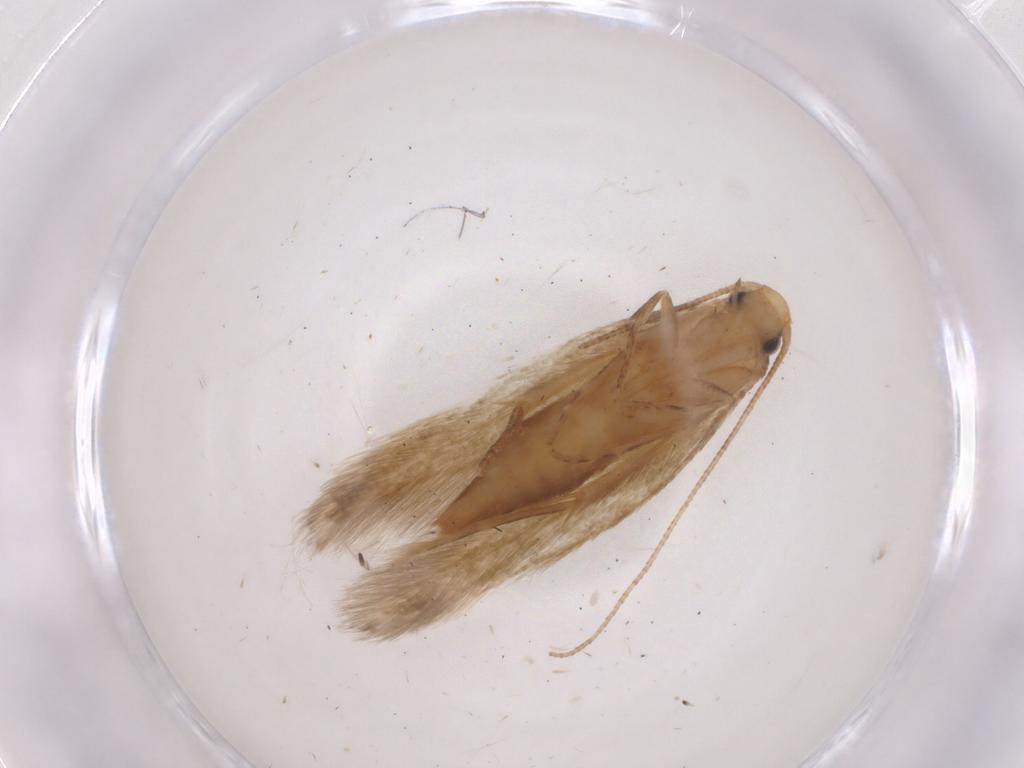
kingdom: Animalia
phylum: Arthropoda
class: Insecta
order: Lepidoptera
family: Tineidae
